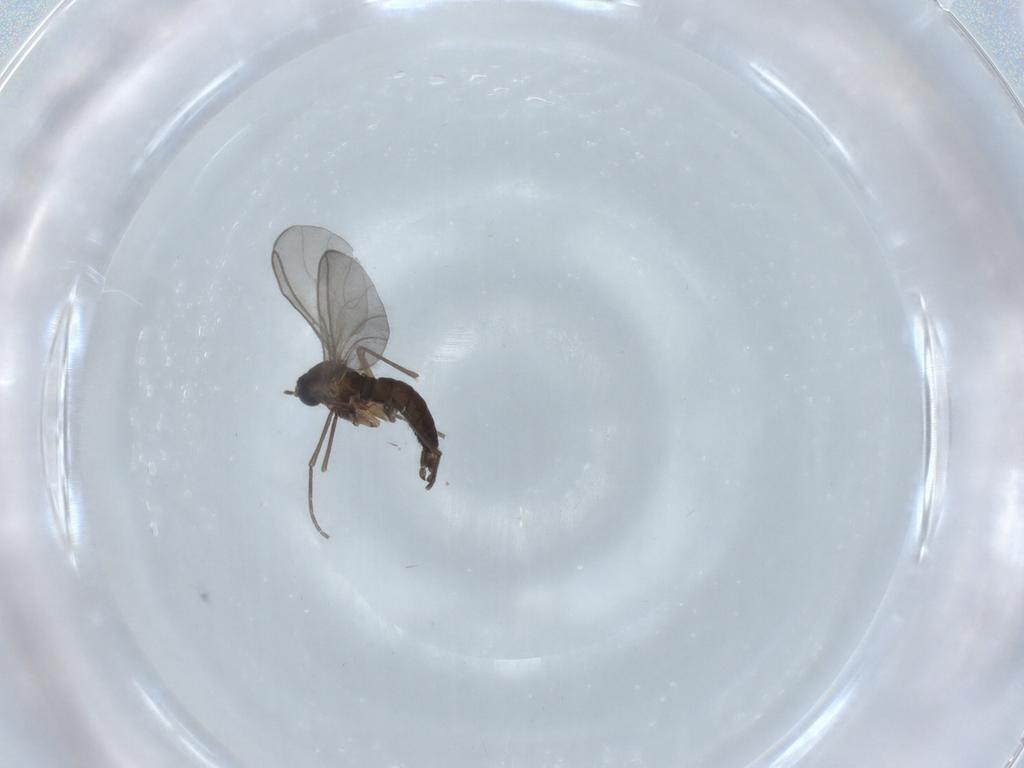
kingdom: Animalia
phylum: Arthropoda
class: Insecta
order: Diptera
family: Sciaridae
